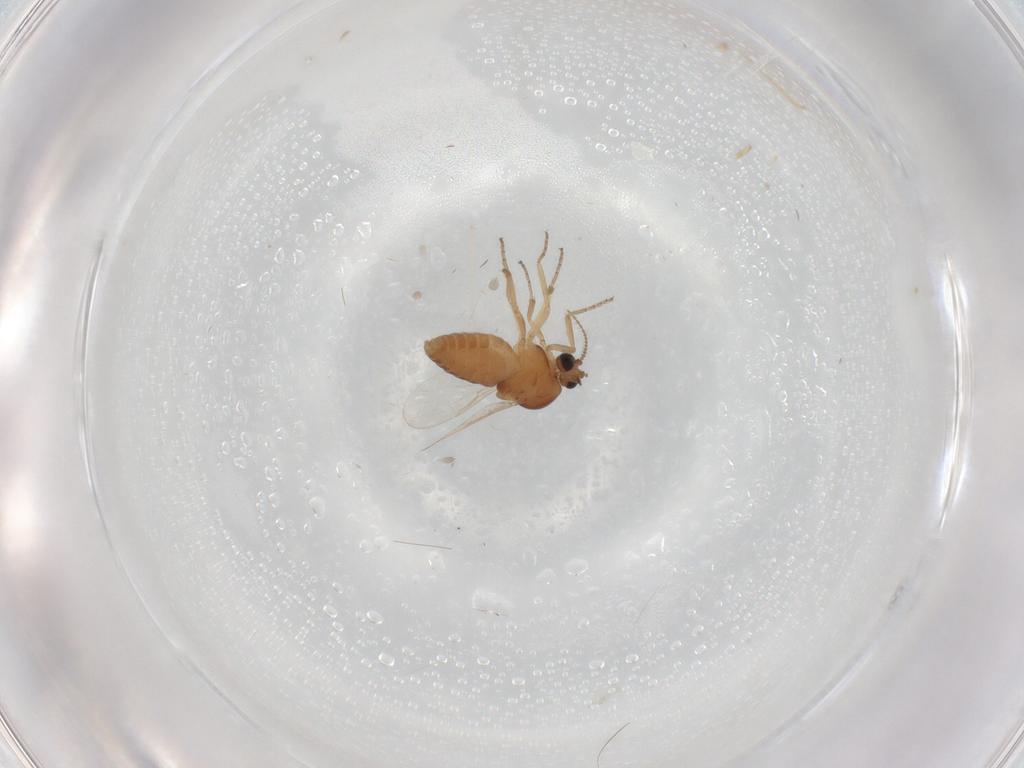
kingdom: Animalia
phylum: Arthropoda
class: Insecta
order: Diptera
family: Ceratopogonidae
